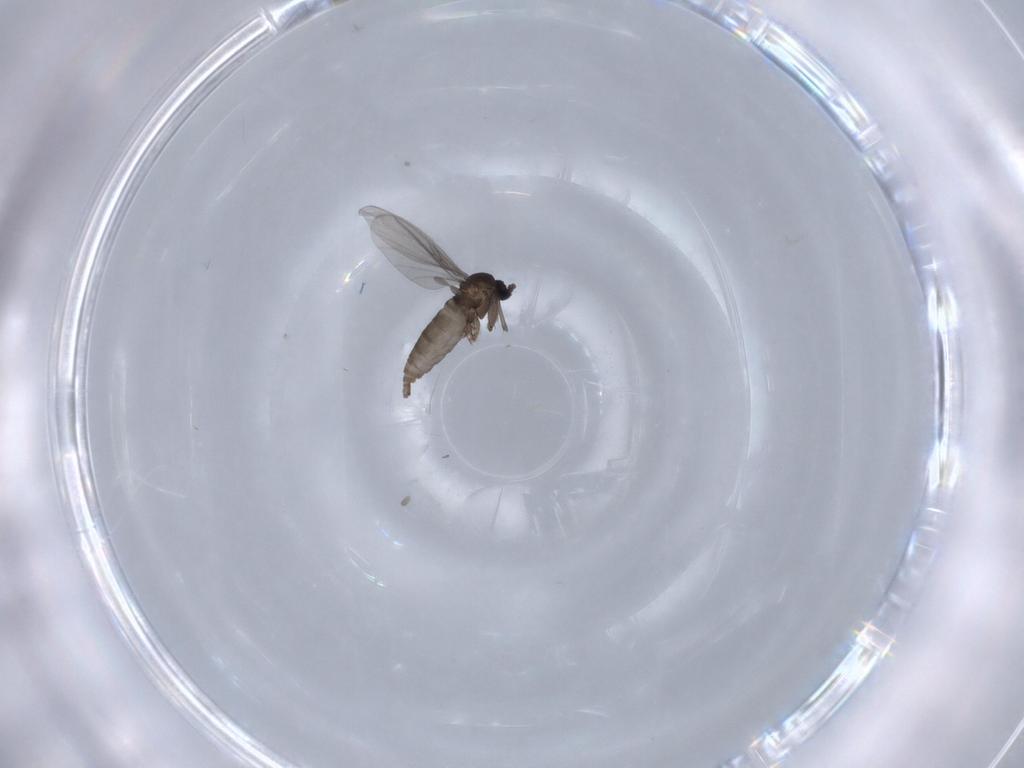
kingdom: Animalia
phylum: Arthropoda
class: Insecta
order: Diptera
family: Sciaridae
